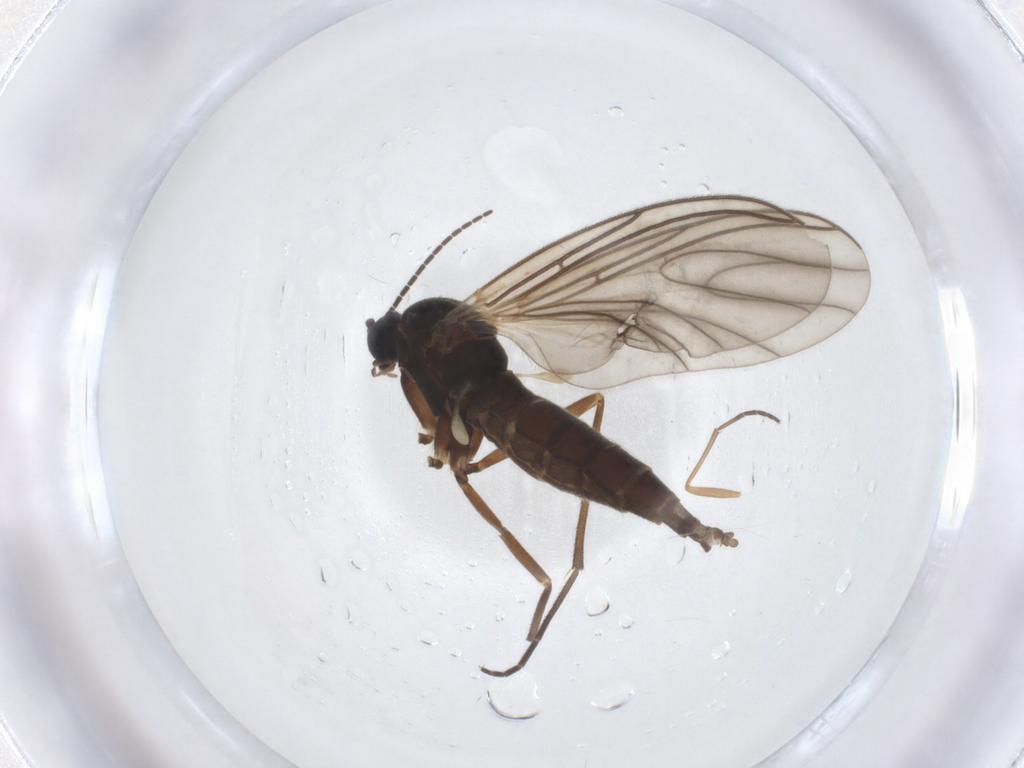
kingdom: Animalia
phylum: Arthropoda
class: Insecta
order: Diptera
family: Sciaridae
